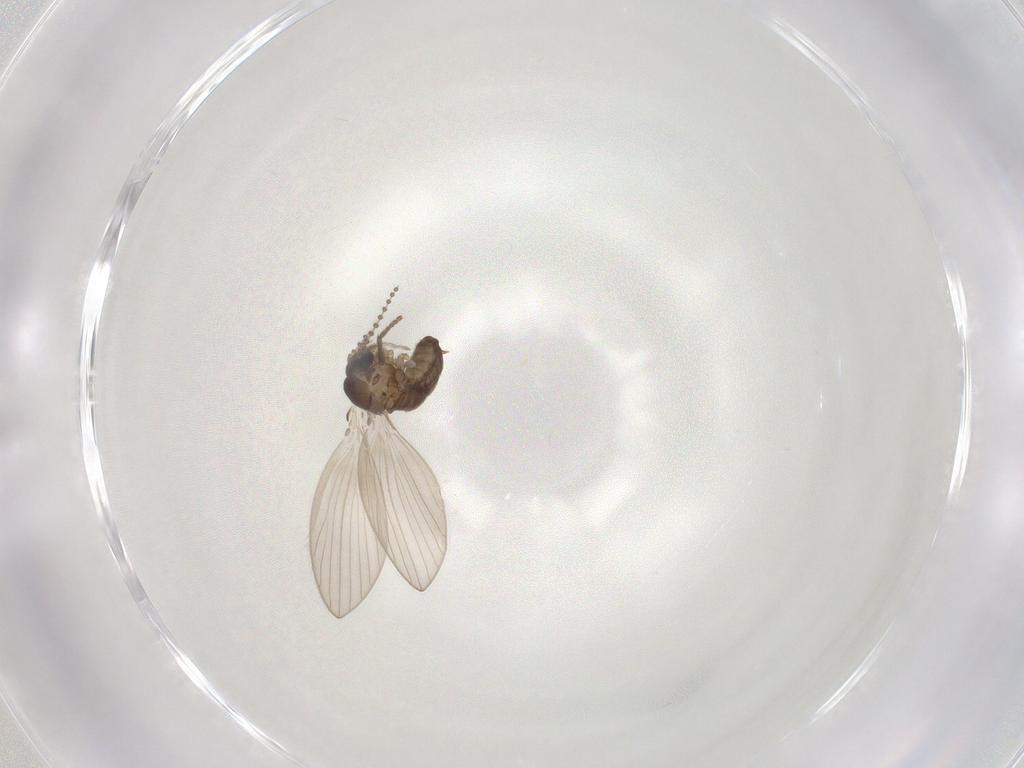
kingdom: Animalia
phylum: Arthropoda
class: Insecta
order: Diptera
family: Psychodidae
